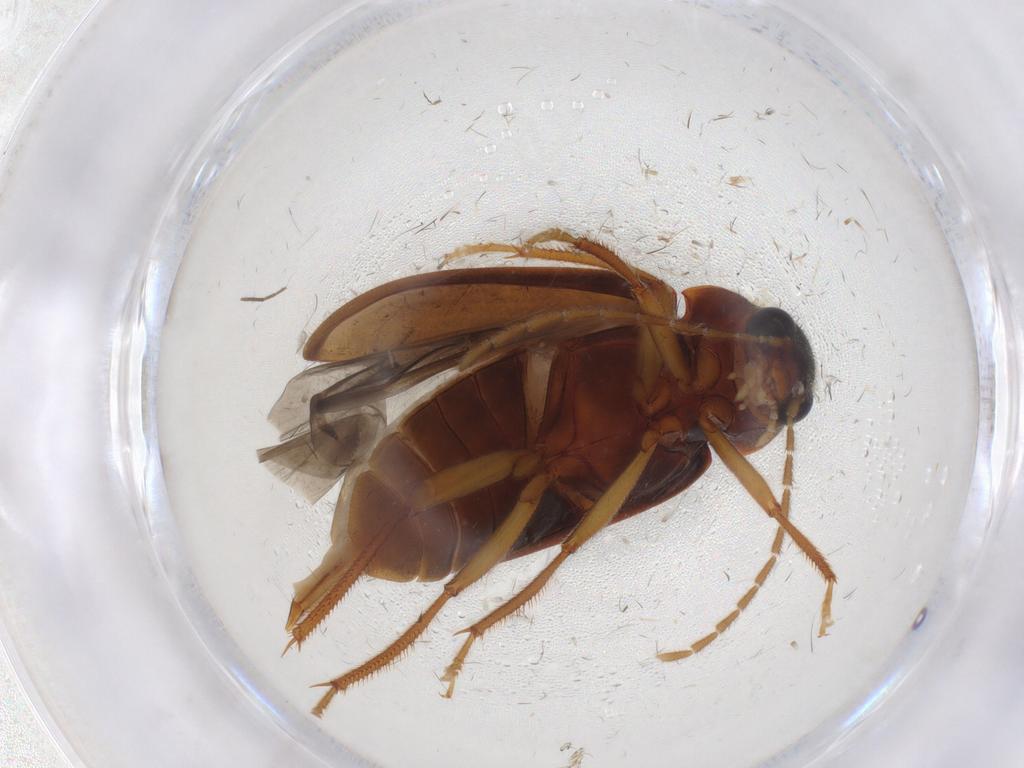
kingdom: Animalia
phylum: Arthropoda
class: Insecta
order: Coleoptera
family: Ptilodactylidae
